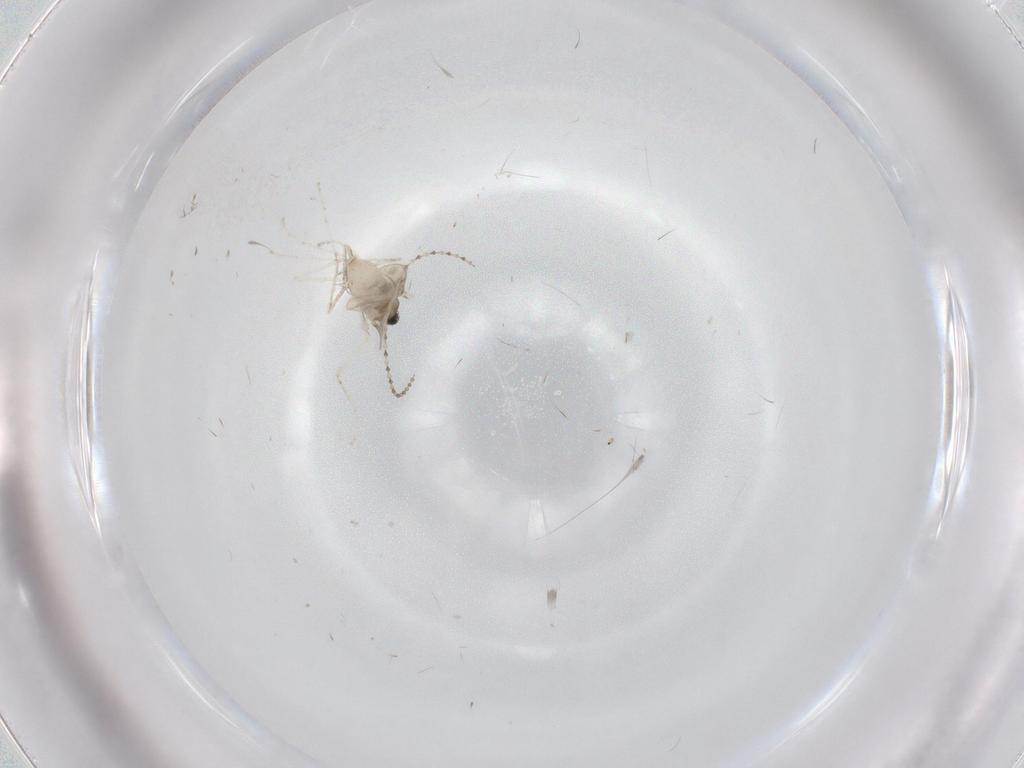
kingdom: Animalia
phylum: Arthropoda
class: Insecta
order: Diptera
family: Cecidomyiidae
